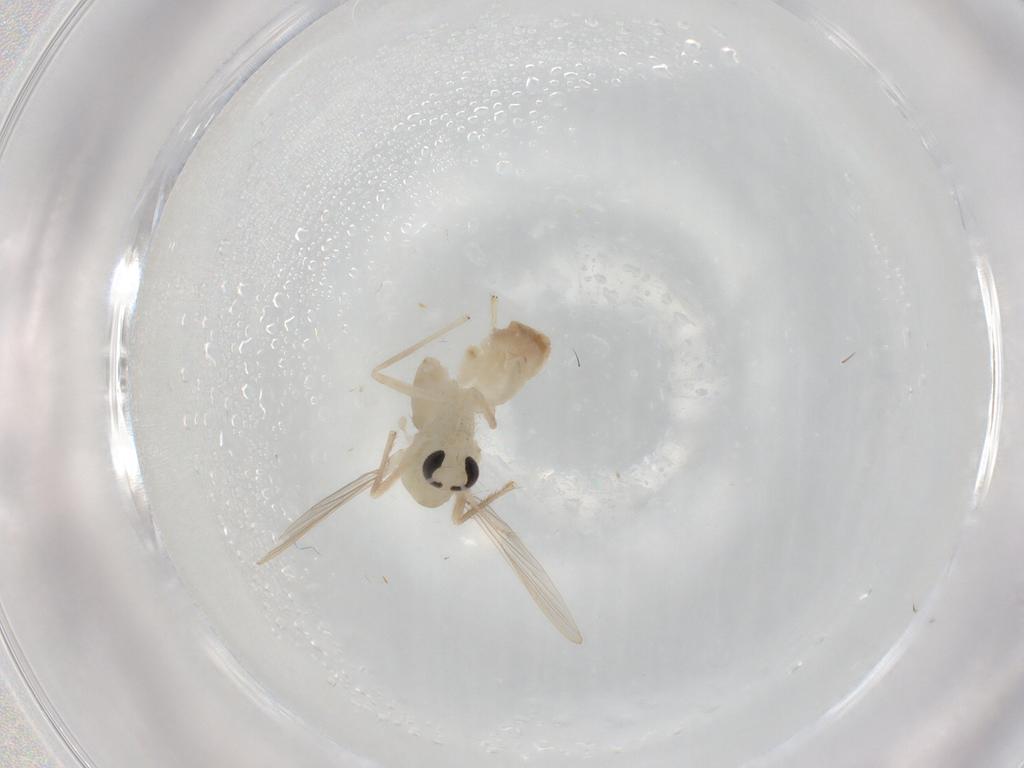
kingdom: Animalia
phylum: Arthropoda
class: Insecta
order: Diptera
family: Chironomidae
